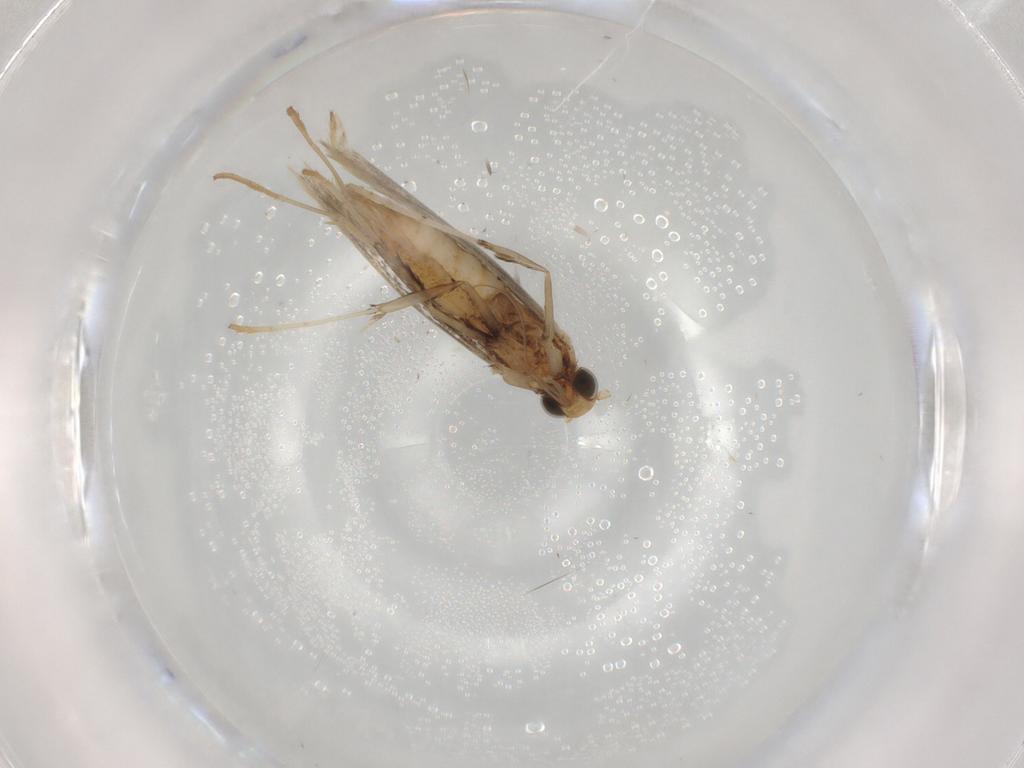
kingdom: Animalia
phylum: Arthropoda
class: Insecta
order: Lepidoptera
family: Gracillariidae
